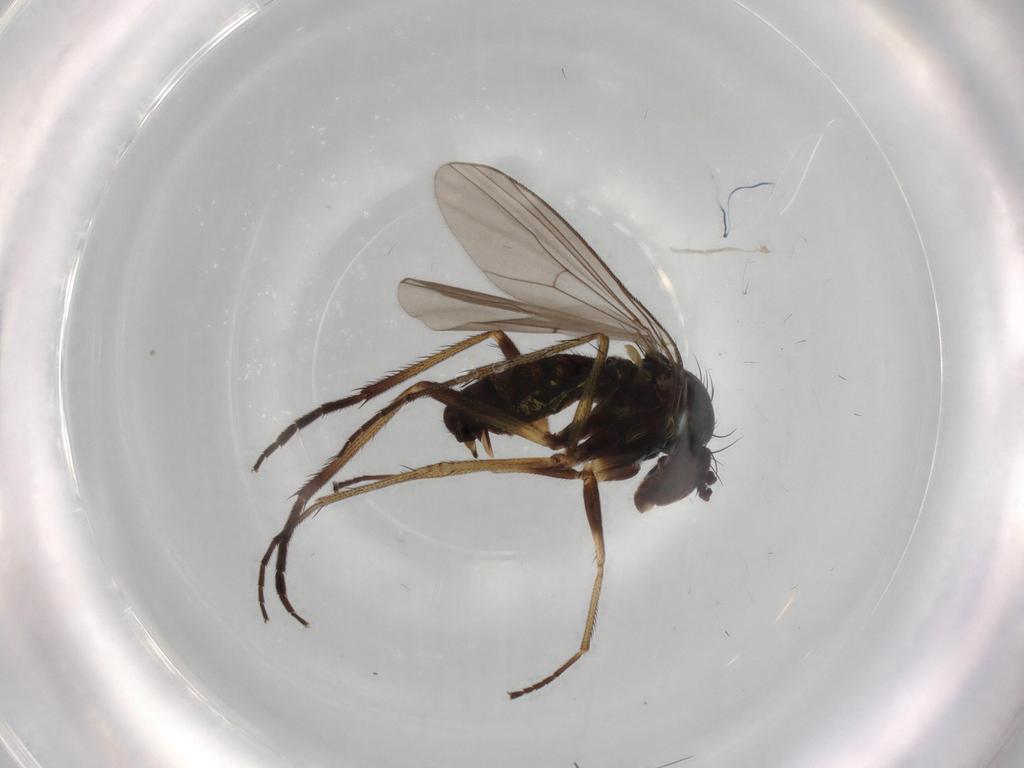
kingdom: Animalia
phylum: Arthropoda
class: Insecta
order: Diptera
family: Dolichopodidae
